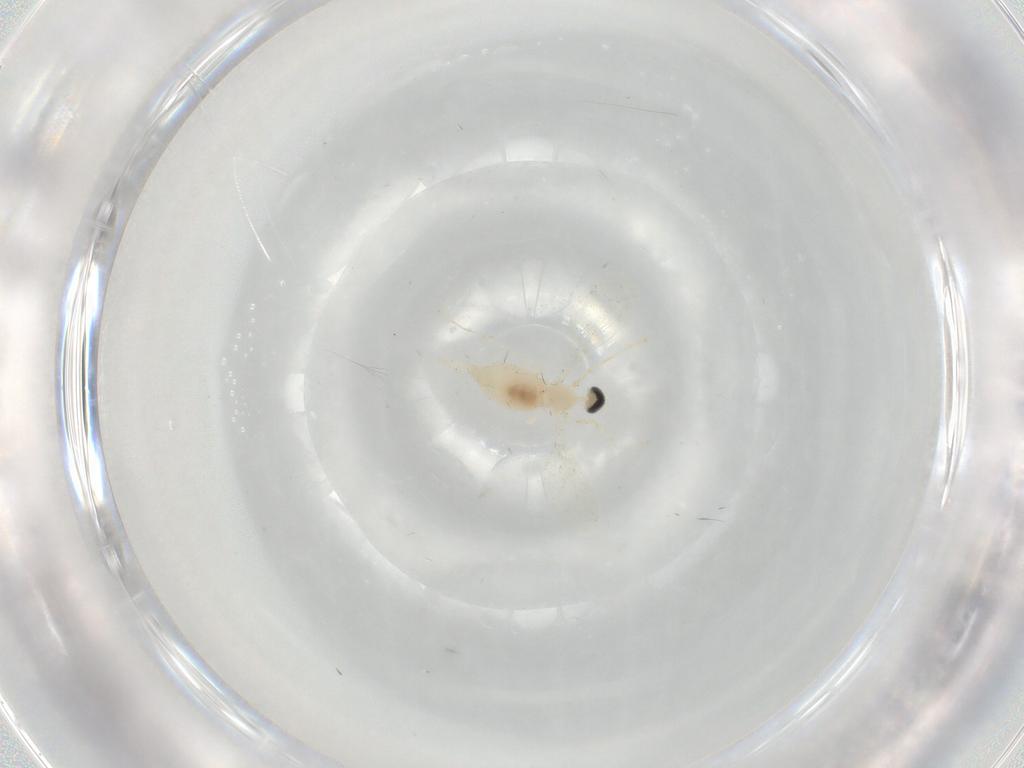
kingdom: Animalia
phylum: Arthropoda
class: Insecta
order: Diptera
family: Cecidomyiidae
